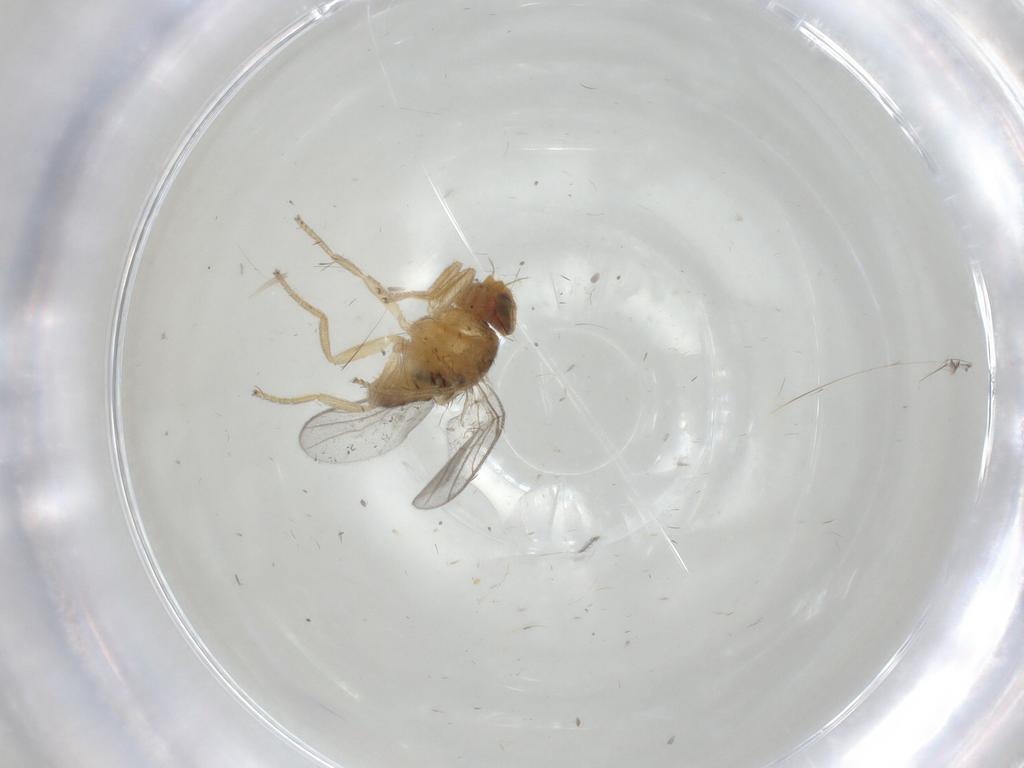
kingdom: Animalia
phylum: Arthropoda
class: Insecta
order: Diptera
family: Chloropidae
